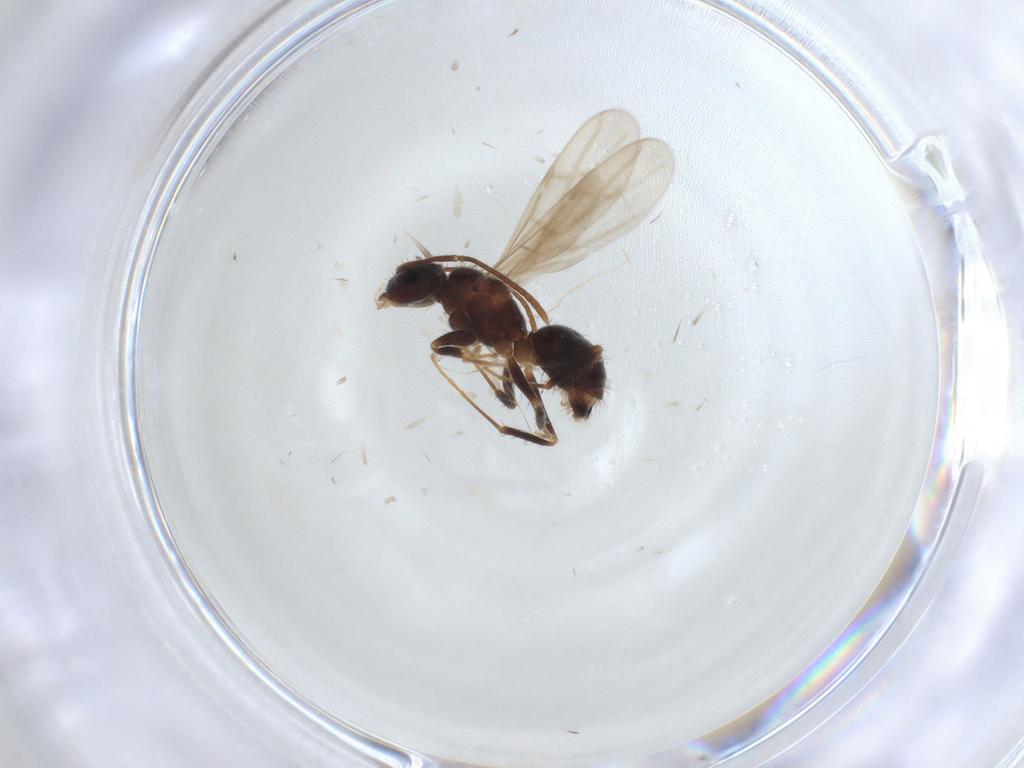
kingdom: Animalia
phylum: Arthropoda
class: Insecta
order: Hymenoptera
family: Formicidae
